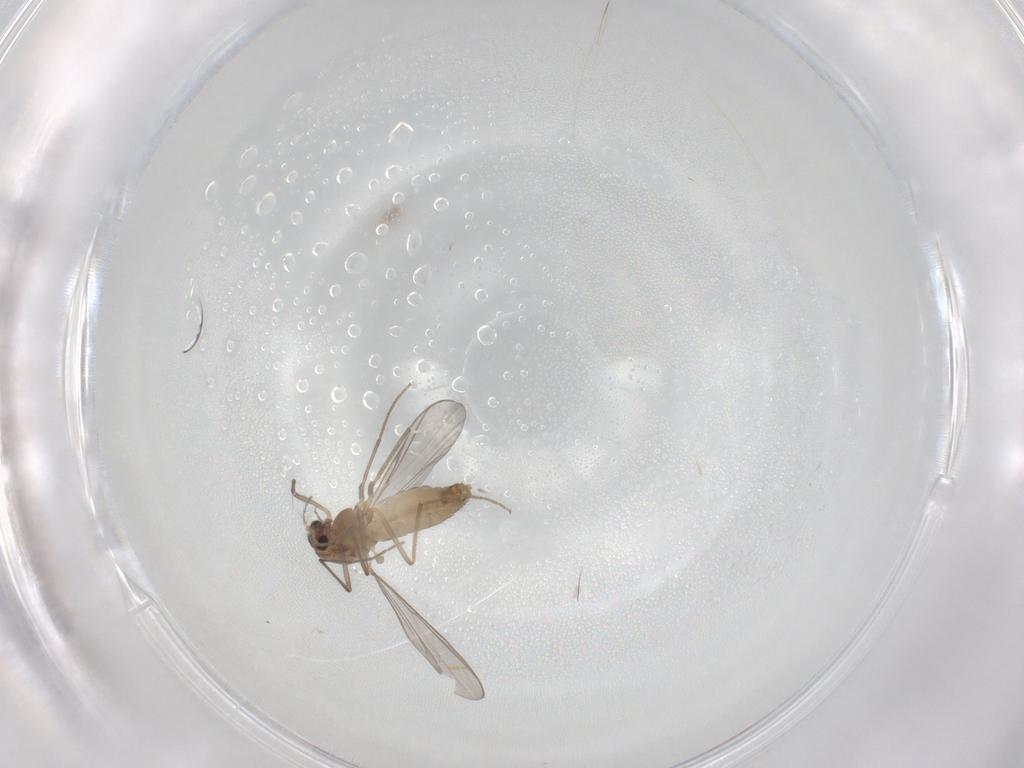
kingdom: Animalia
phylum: Arthropoda
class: Insecta
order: Diptera
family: Chironomidae
